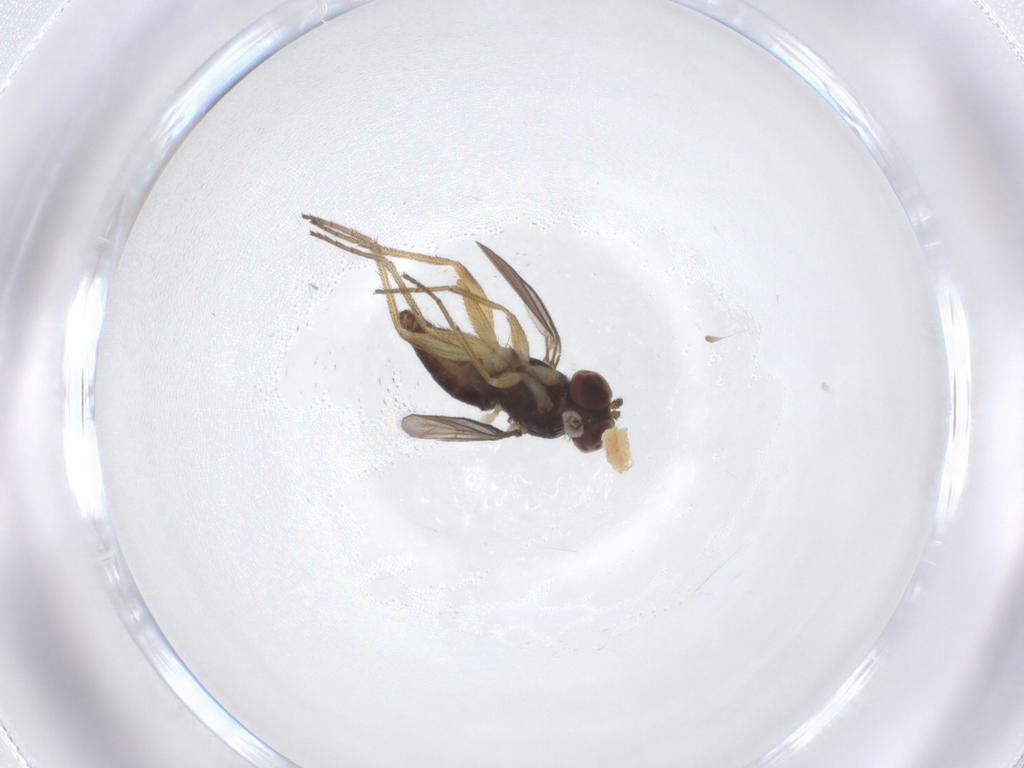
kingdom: Animalia
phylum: Arthropoda
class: Insecta
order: Diptera
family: Dolichopodidae
